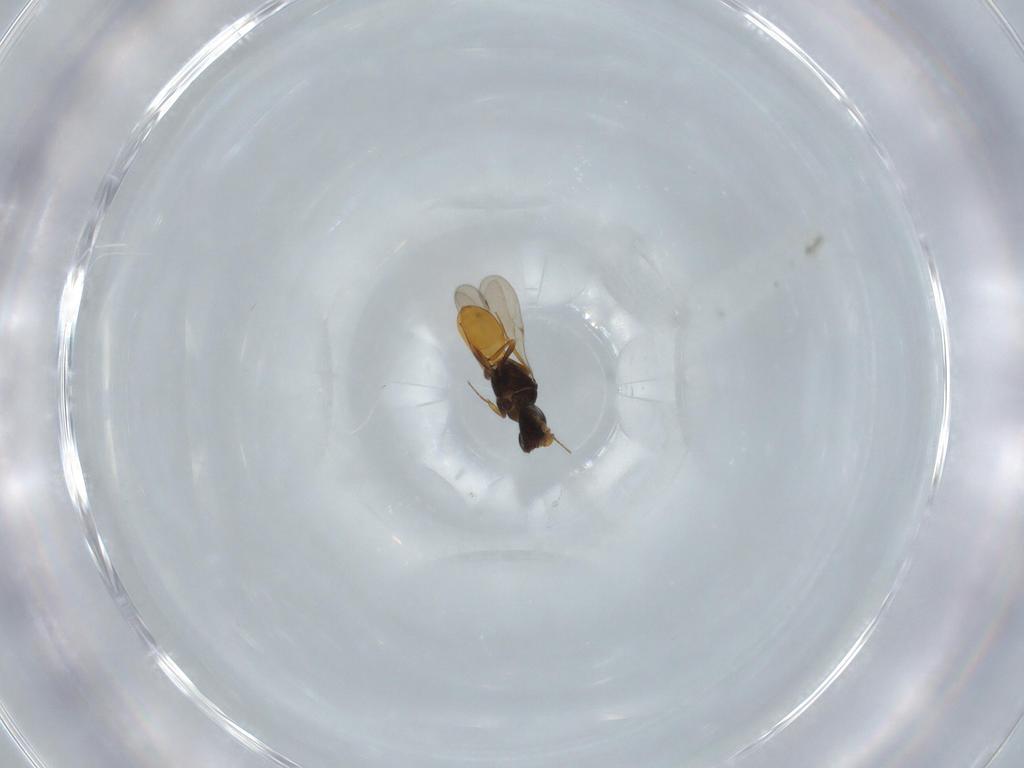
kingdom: Animalia
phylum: Arthropoda
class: Insecta
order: Hymenoptera
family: Scelionidae
